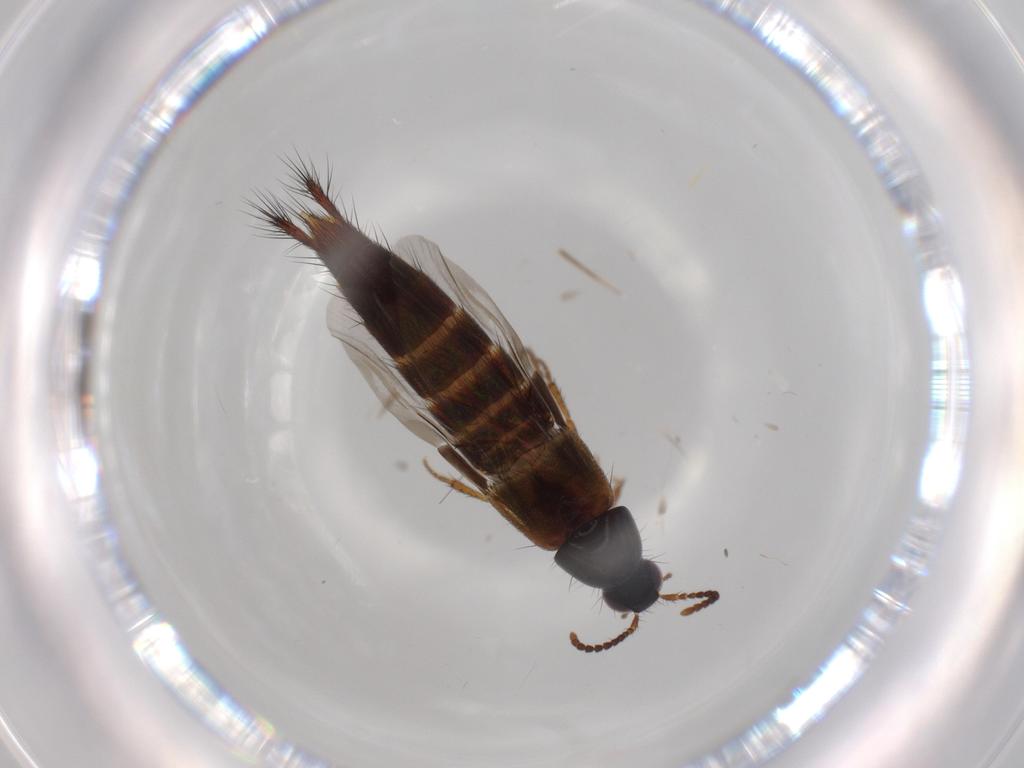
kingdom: Animalia
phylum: Arthropoda
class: Insecta
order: Coleoptera
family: Staphylinidae
